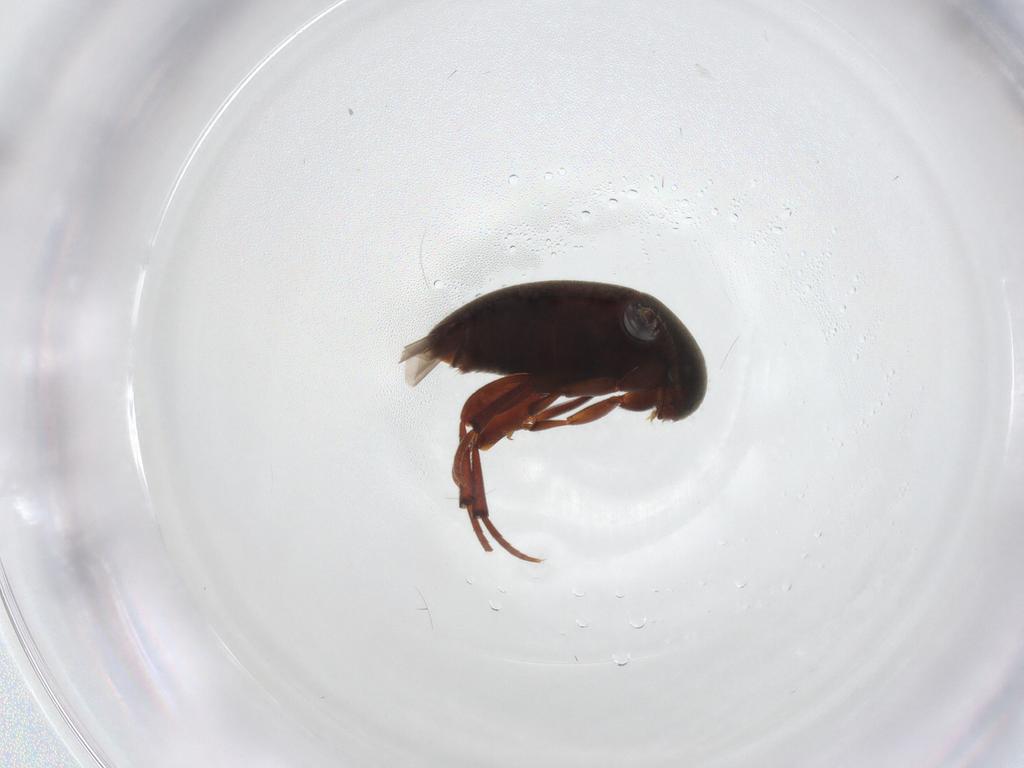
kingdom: Animalia
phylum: Arthropoda
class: Insecta
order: Coleoptera
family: Leiodidae
